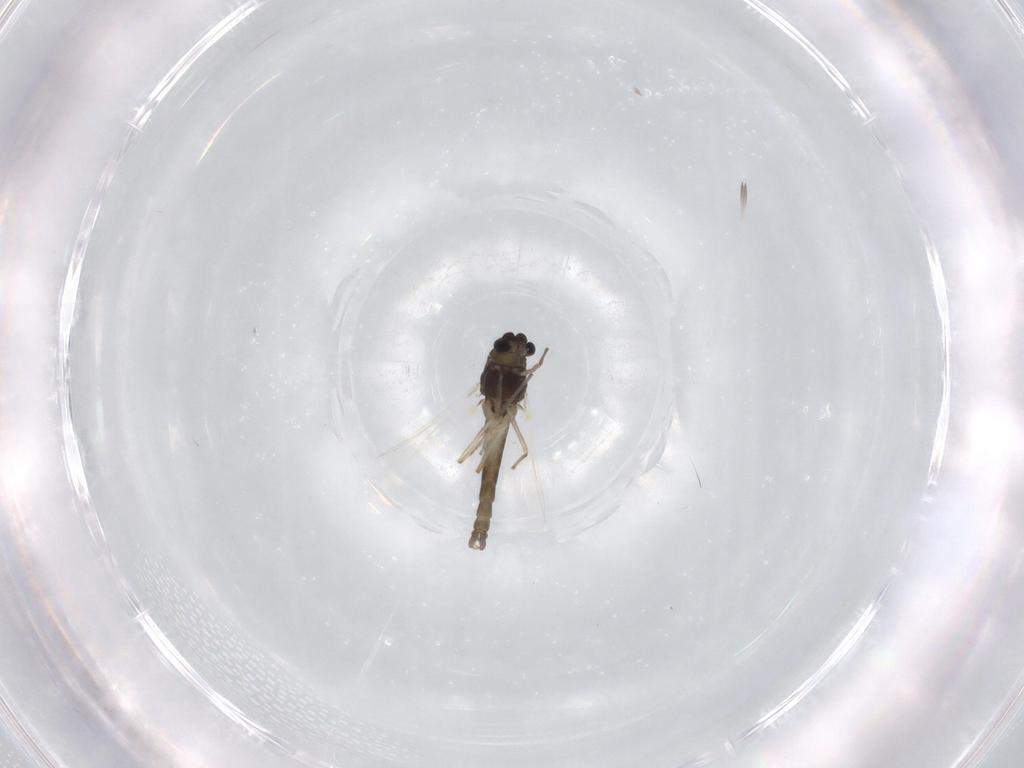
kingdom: Animalia
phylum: Arthropoda
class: Insecta
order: Diptera
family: Chironomidae
